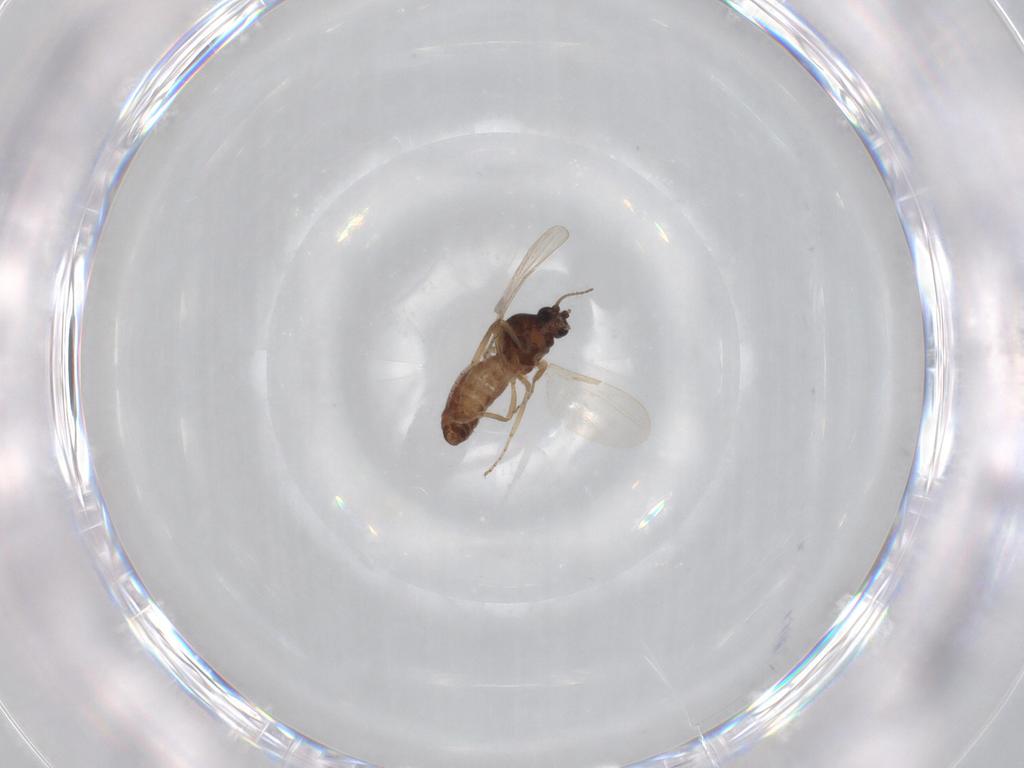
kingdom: Animalia
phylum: Arthropoda
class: Insecta
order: Diptera
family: Ceratopogonidae
